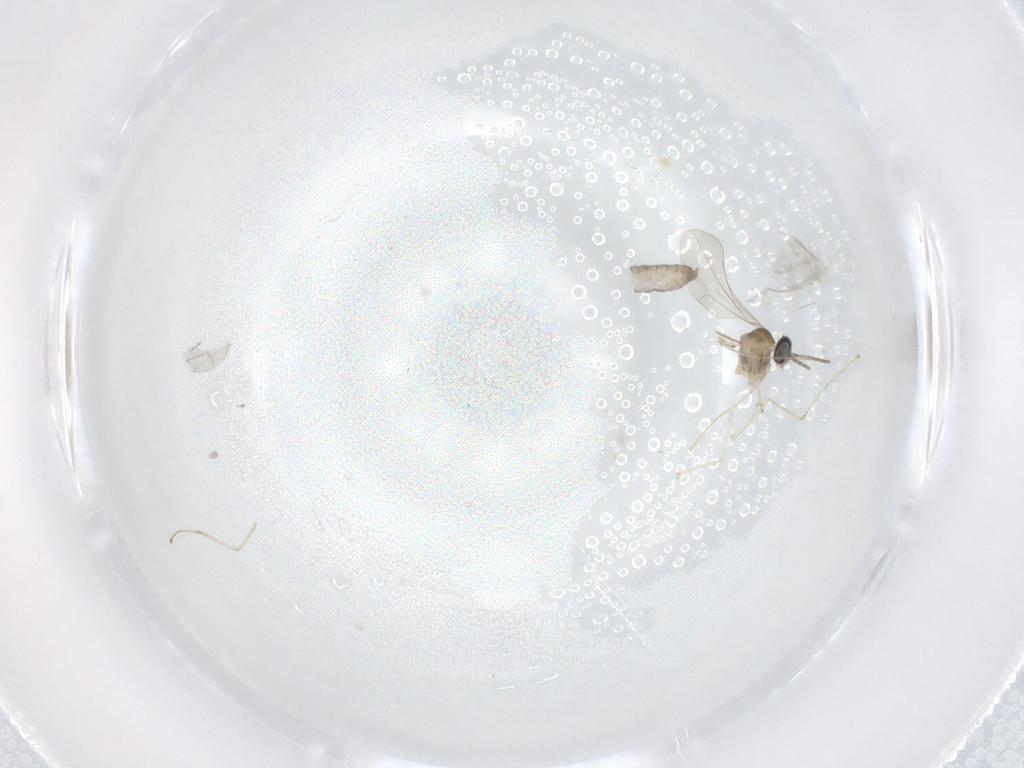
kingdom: Animalia
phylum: Arthropoda
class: Insecta
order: Diptera
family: Cecidomyiidae
